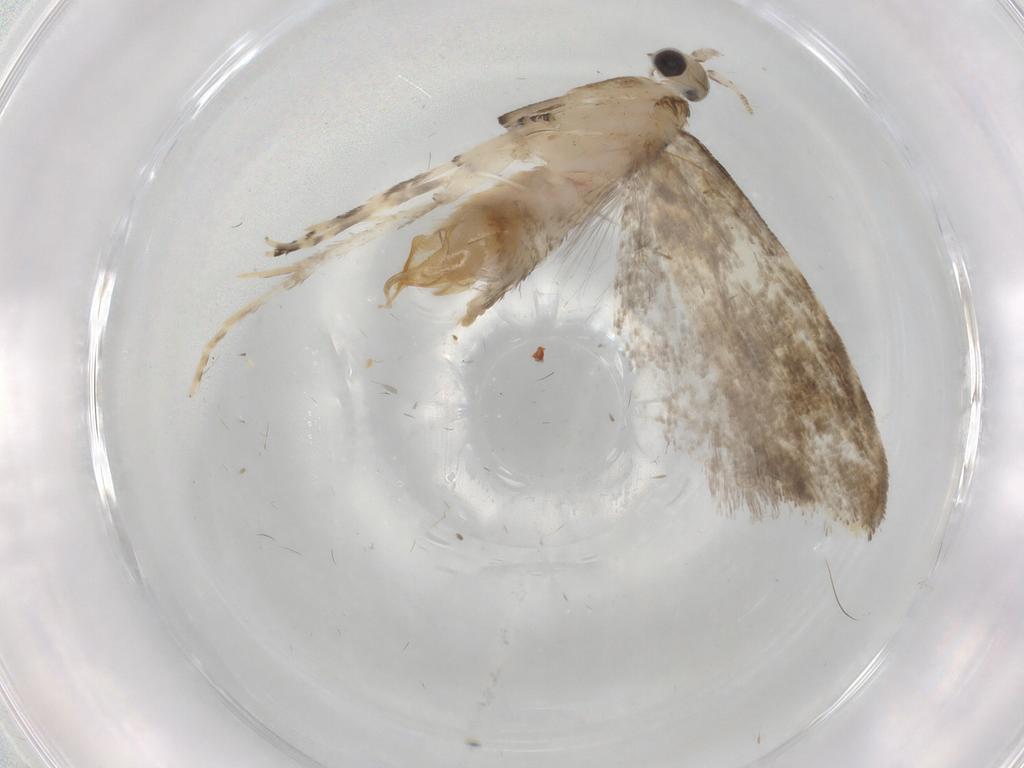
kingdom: Animalia
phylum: Arthropoda
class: Insecta
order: Lepidoptera
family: Tineidae
